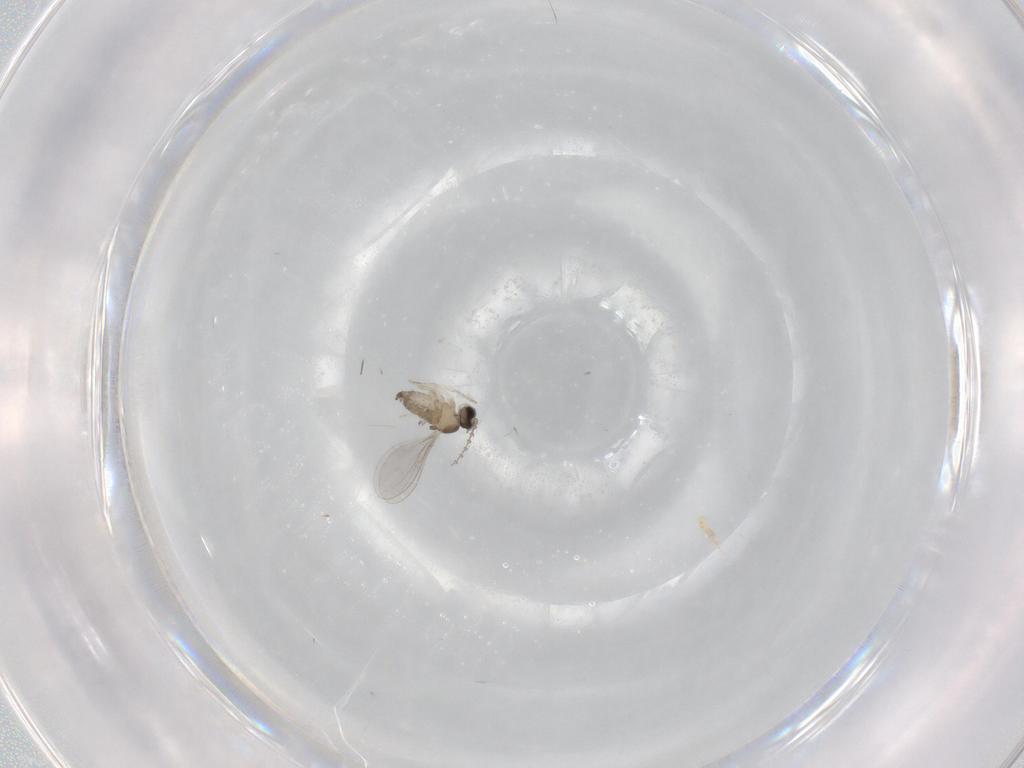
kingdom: Animalia
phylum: Arthropoda
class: Insecta
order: Diptera
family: Cecidomyiidae
